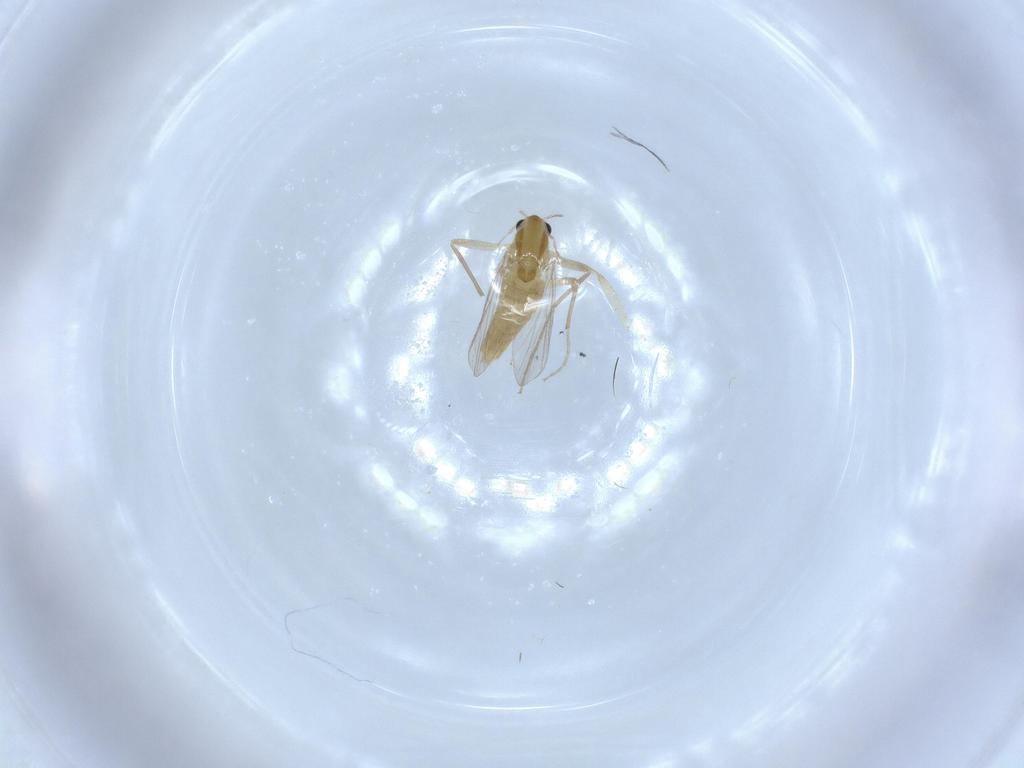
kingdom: Animalia
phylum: Arthropoda
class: Insecta
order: Diptera
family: Chironomidae
